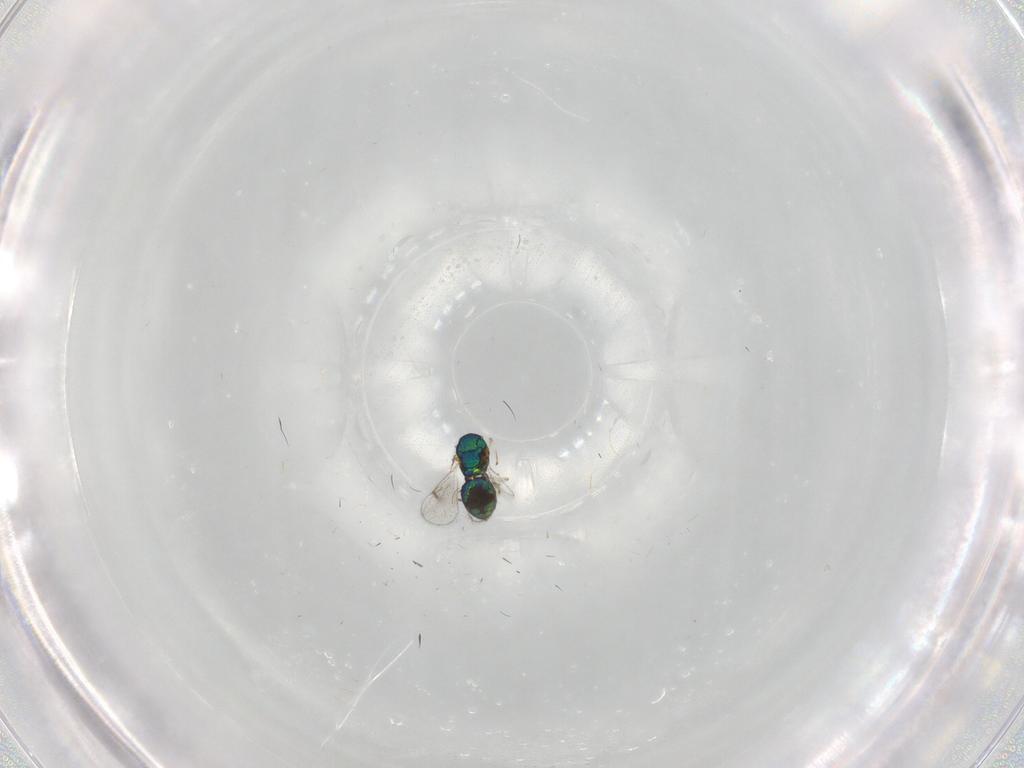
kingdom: Animalia
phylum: Arthropoda
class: Insecta
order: Hymenoptera
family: Eulophidae
